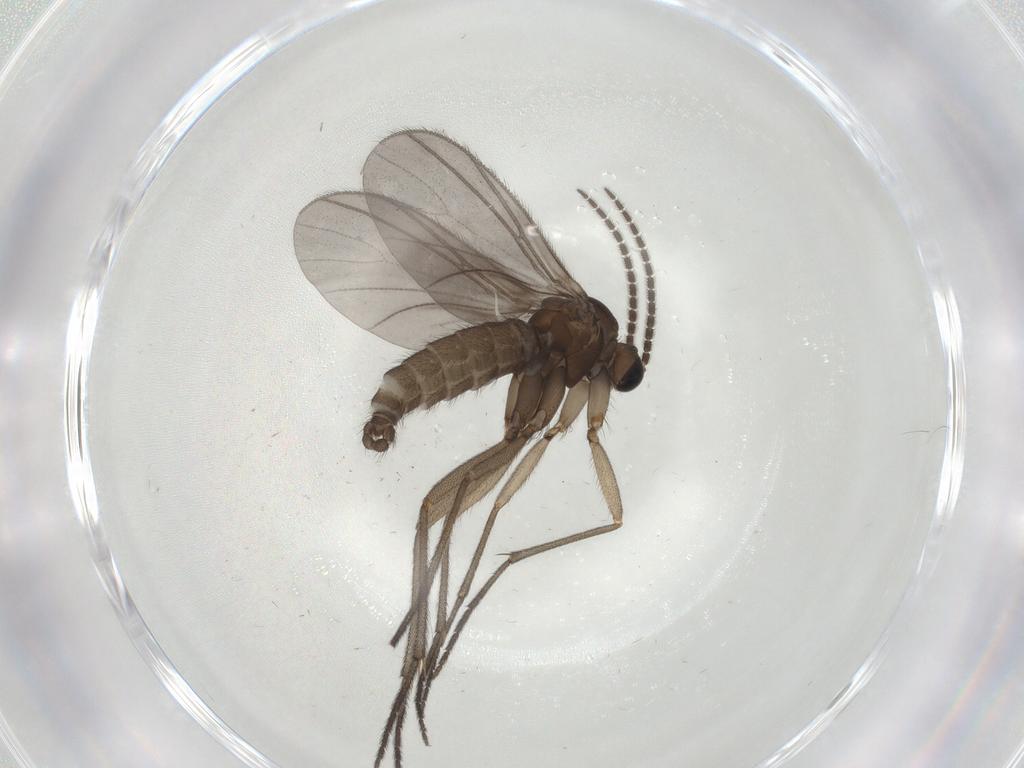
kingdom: Animalia
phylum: Arthropoda
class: Insecta
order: Diptera
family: Sciaridae
